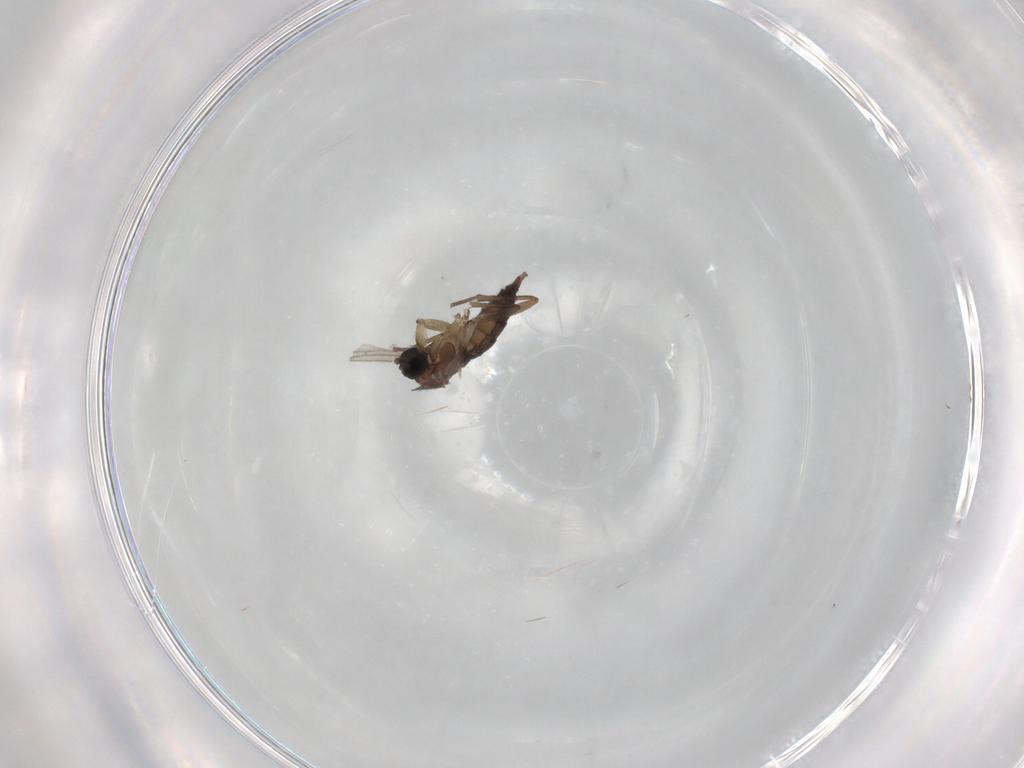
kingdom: Animalia
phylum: Arthropoda
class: Insecta
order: Diptera
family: Sciaridae
